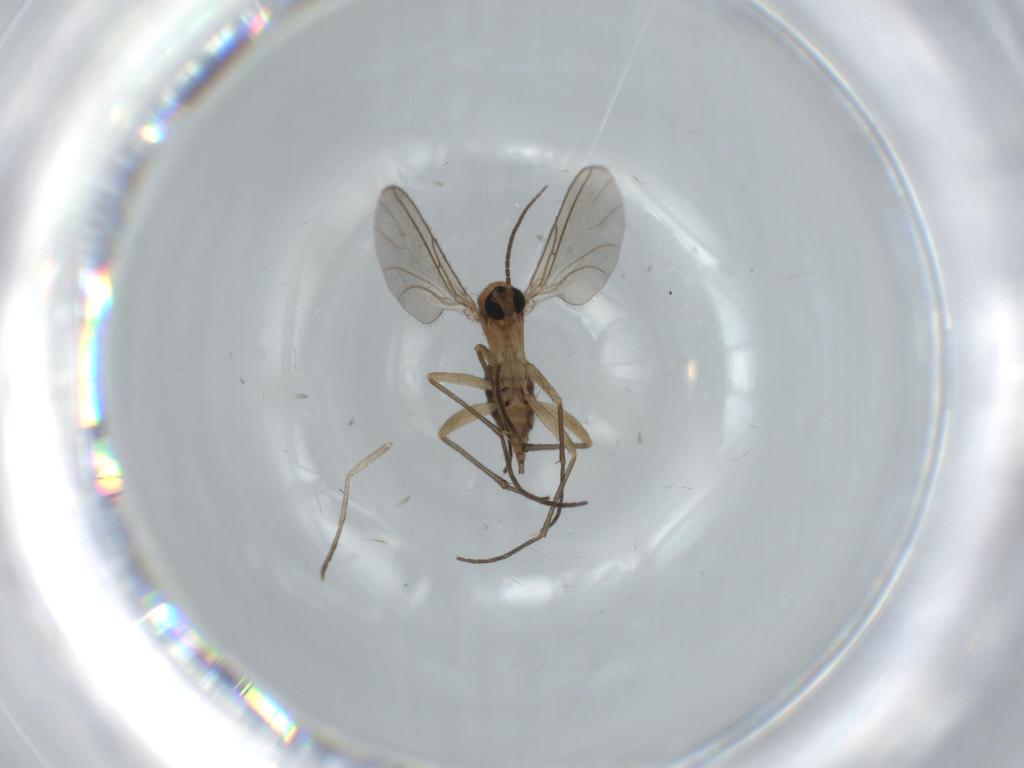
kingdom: Animalia
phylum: Arthropoda
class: Insecta
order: Diptera
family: Sciaridae
